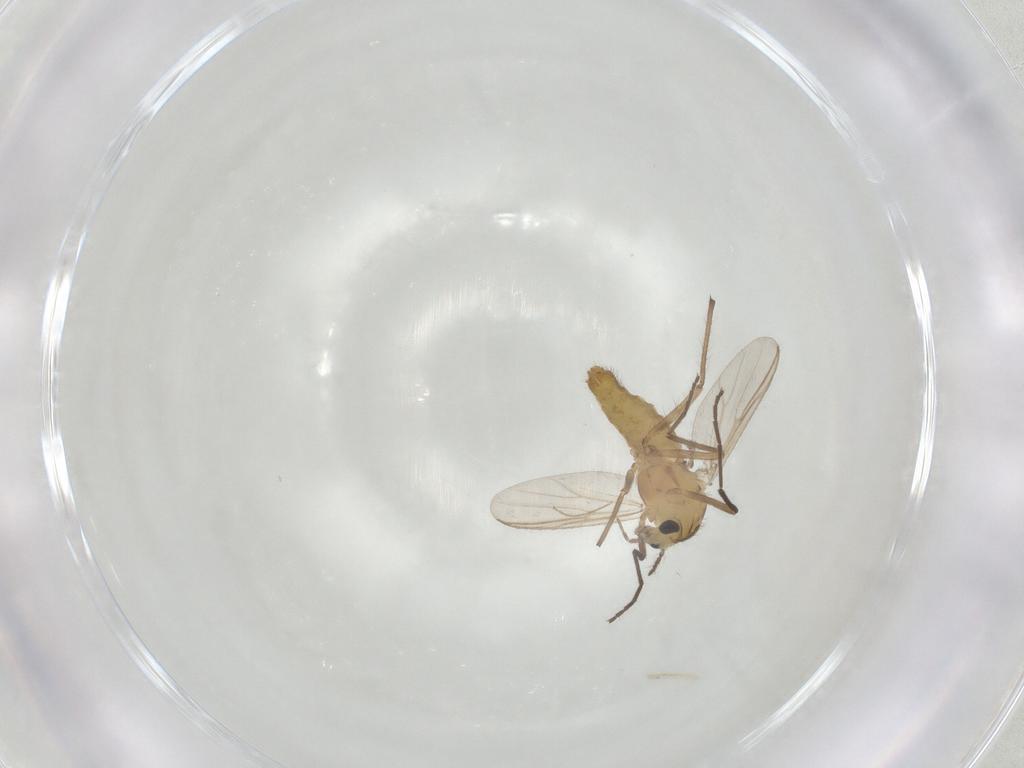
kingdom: Animalia
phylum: Arthropoda
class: Insecta
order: Diptera
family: Chironomidae
